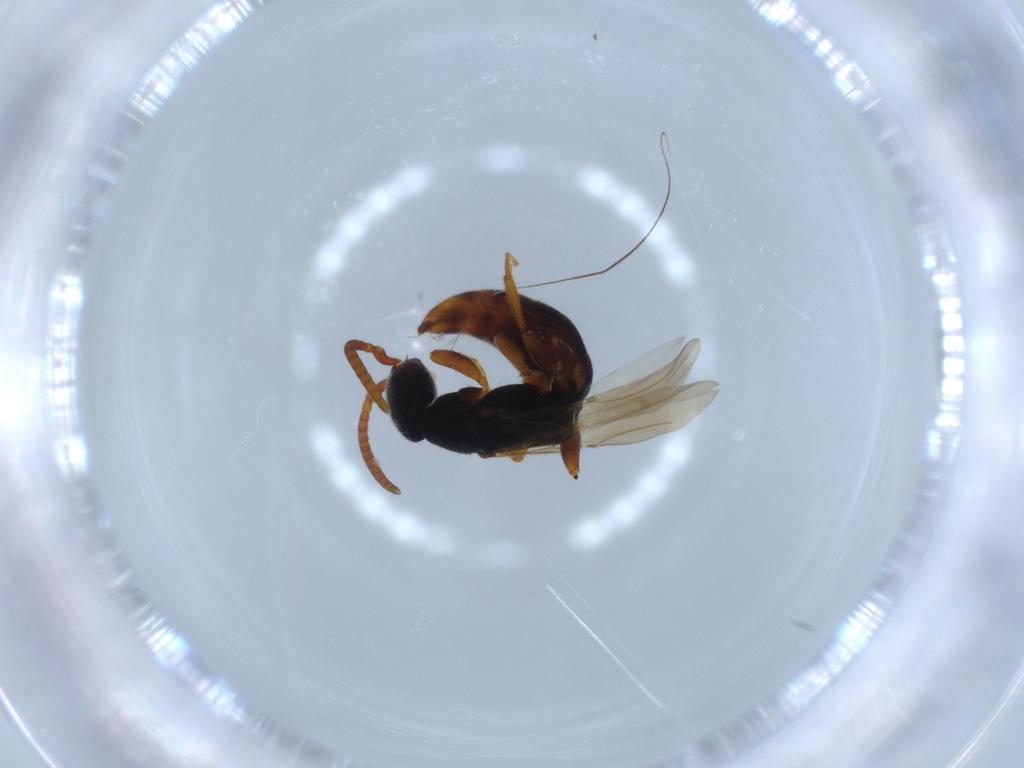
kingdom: Animalia
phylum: Arthropoda
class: Insecta
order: Hymenoptera
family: Bethylidae
